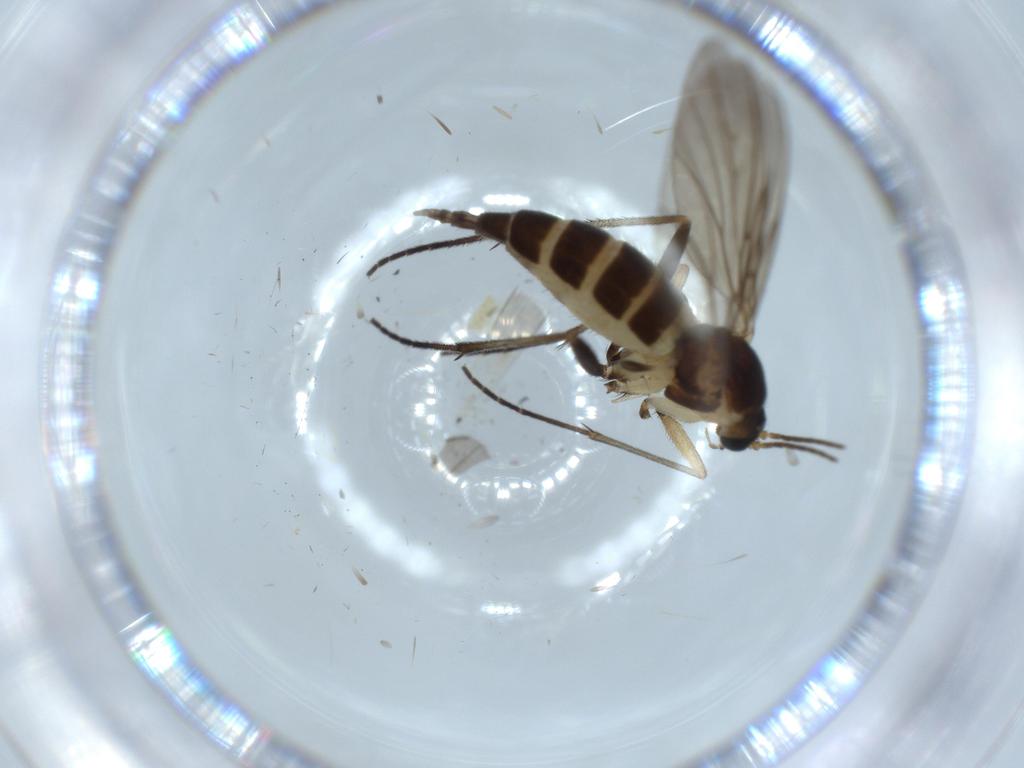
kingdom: Animalia
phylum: Arthropoda
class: Insecta
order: Diptera
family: Sciaridae
